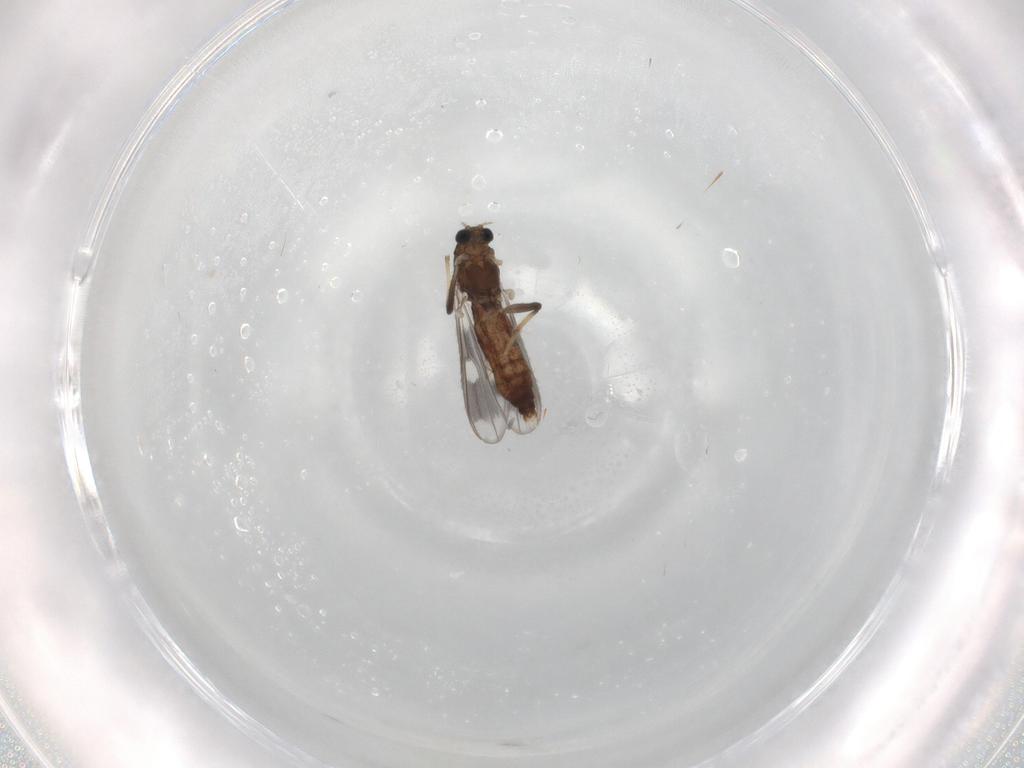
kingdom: Animalia
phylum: Arthropoda
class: Insecta
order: Diptera
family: Chironomidae
